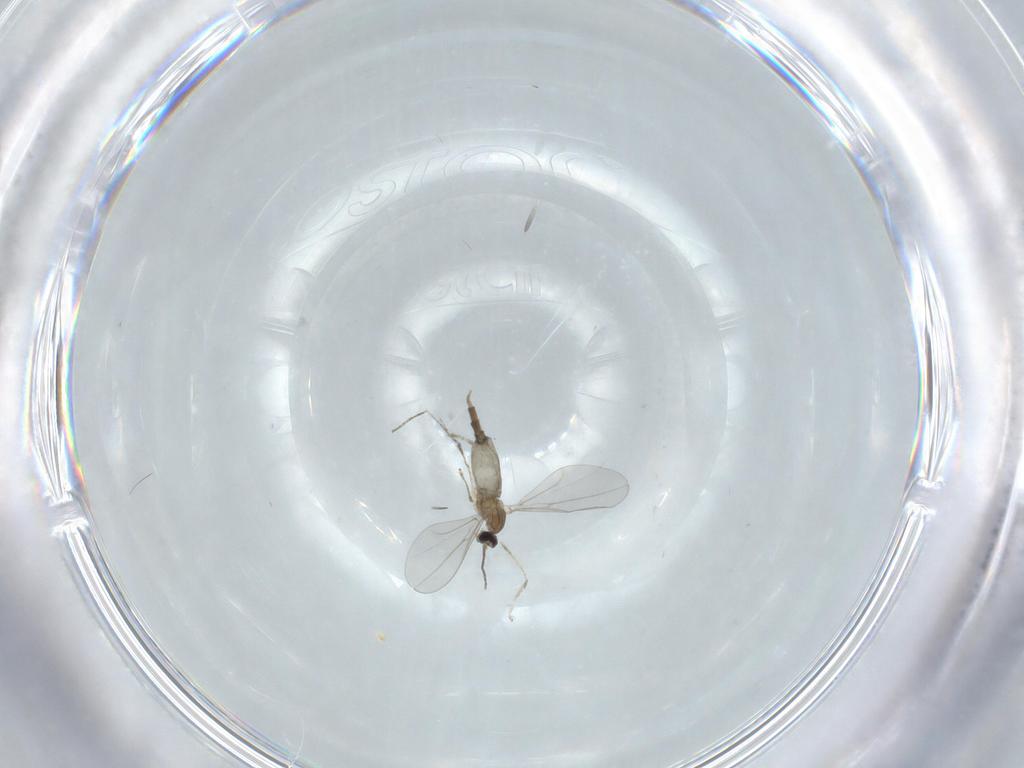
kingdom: Animalia
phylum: Arthropoda
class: Insecta
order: Diptera
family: Cecidomyiidae
